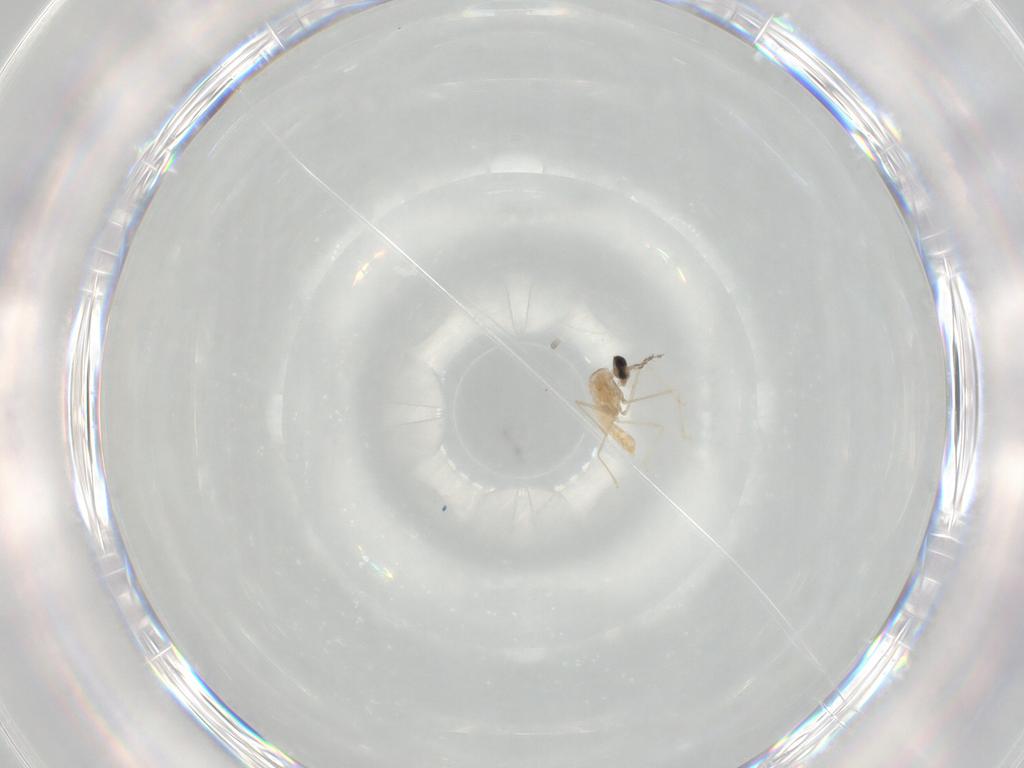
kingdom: Animalia
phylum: Arthropoda
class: Insecta
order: Diptera
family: Cecidomyiidae
